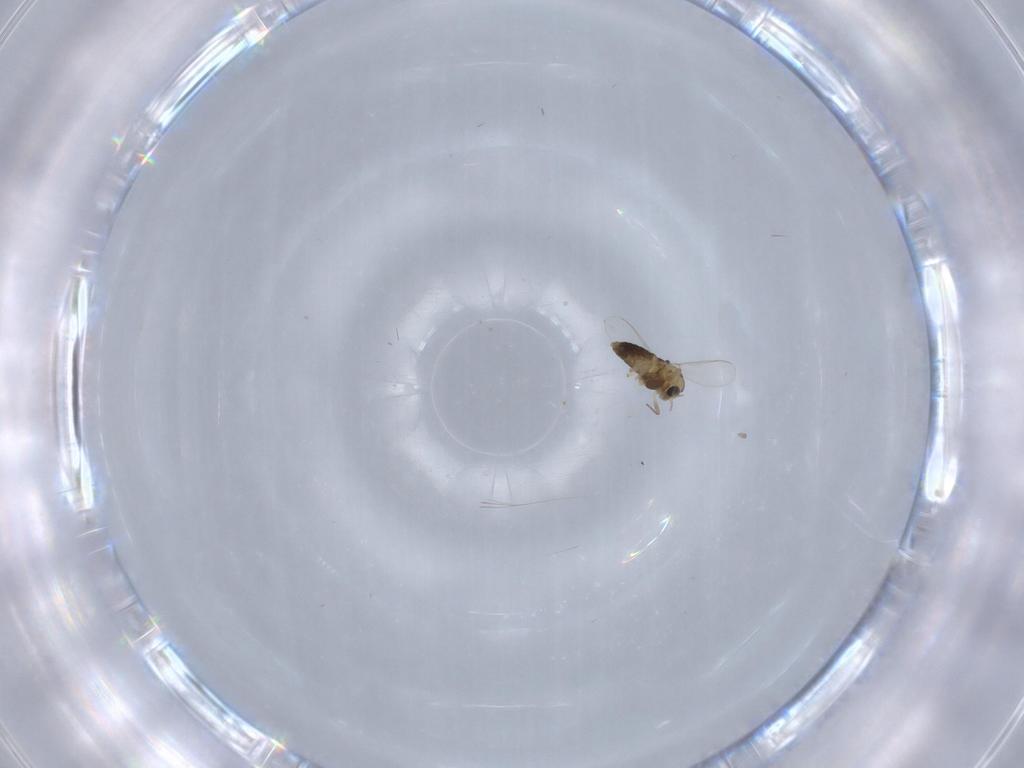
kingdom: Animalia
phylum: Arthropoda
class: Insecta
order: Diptera
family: Chironomidae
